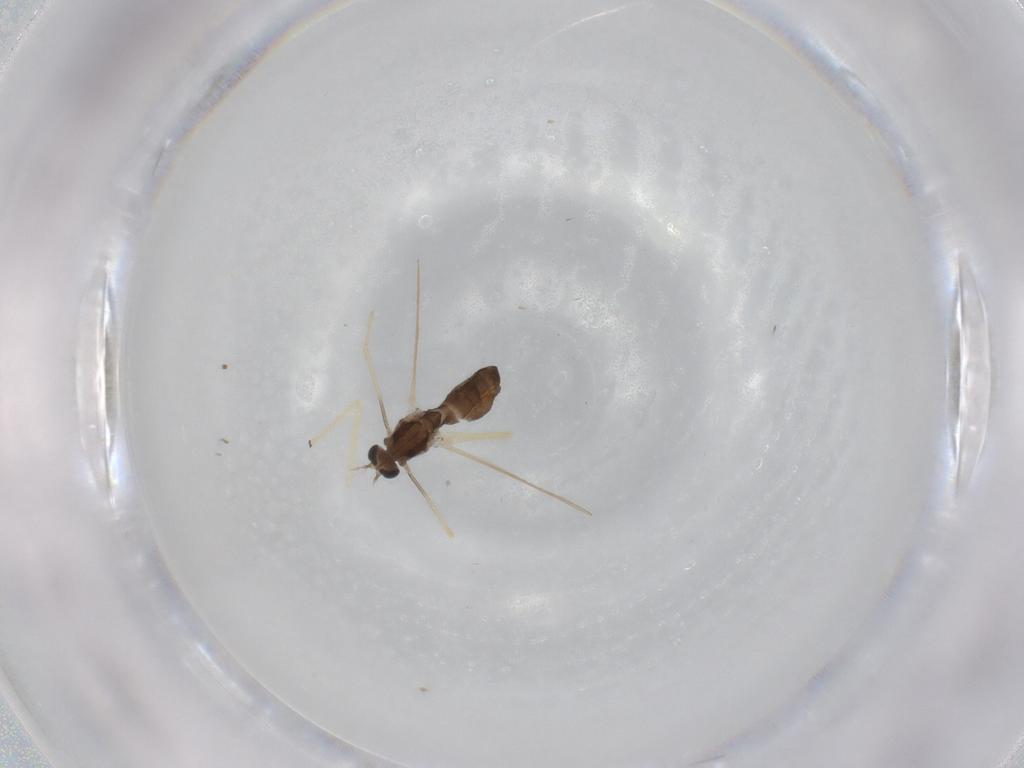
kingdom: Animalia
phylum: Arthropoda
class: Insecta
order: Diptera
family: Chironomidae
